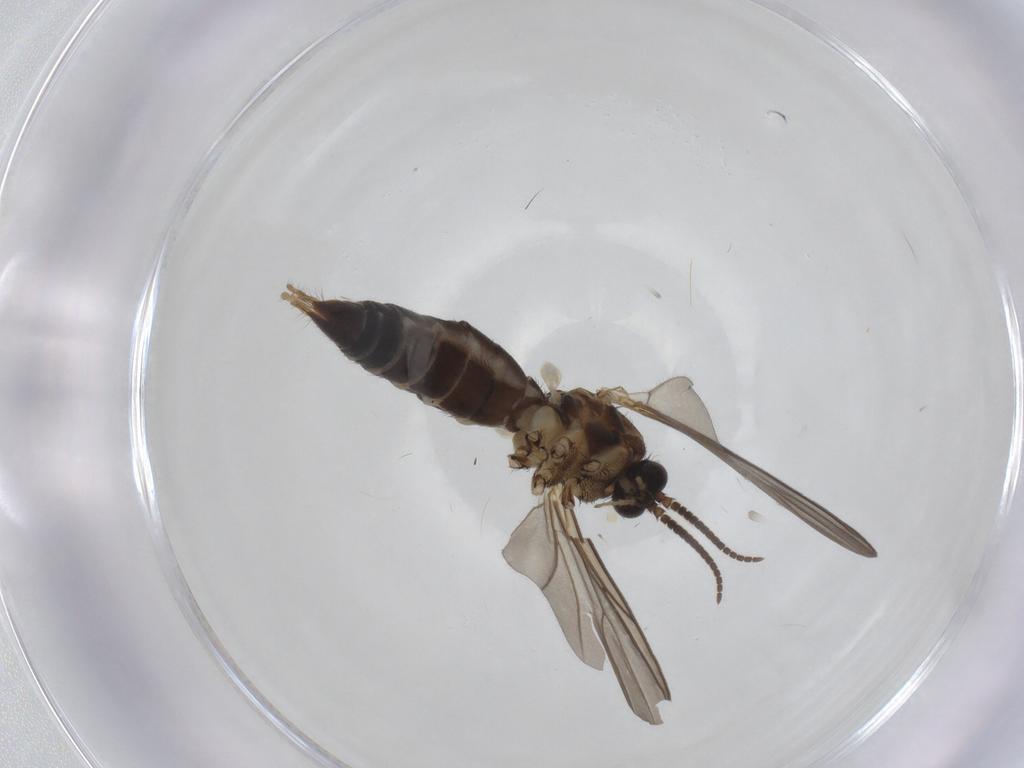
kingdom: Animalia
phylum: Arthropoda
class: Insecta
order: Diptera
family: Mycetophilidae
